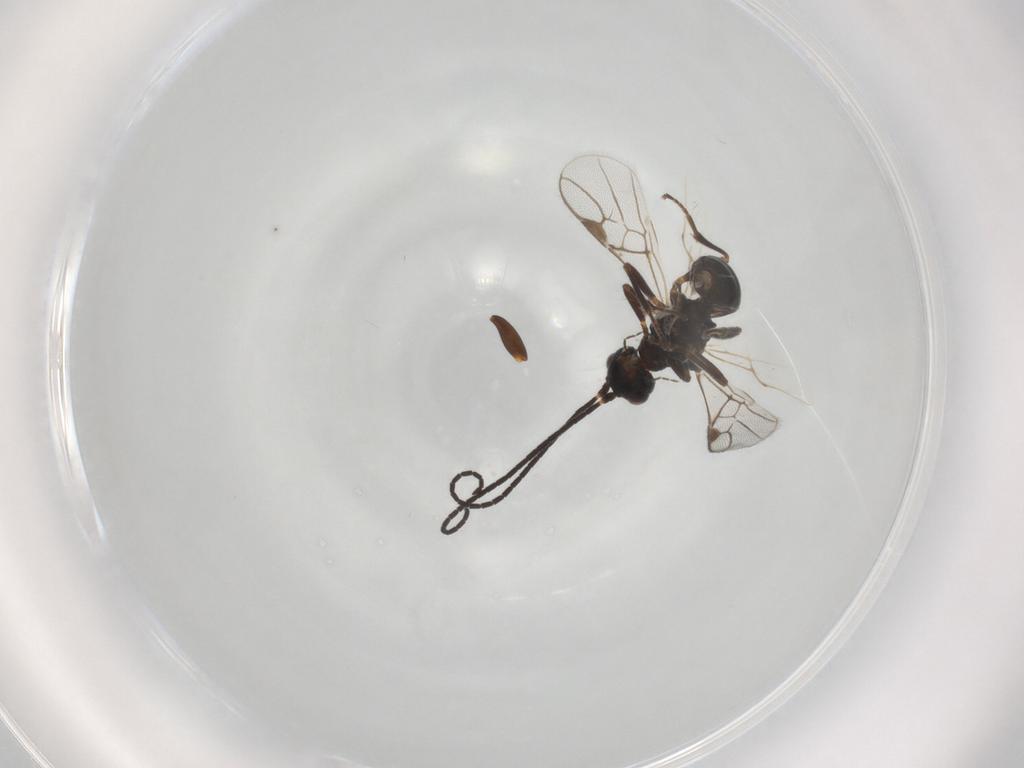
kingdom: Animalia
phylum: Arthropoda
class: Insecta
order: Hymenoptera
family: Braconidae
